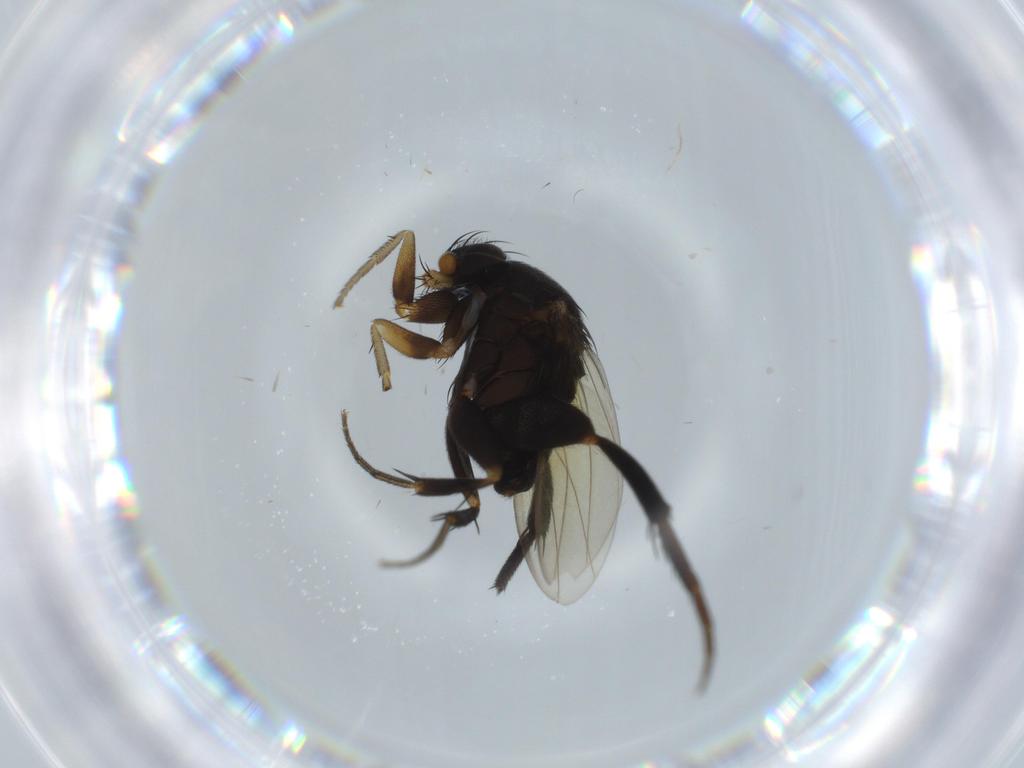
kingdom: Animalia
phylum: Arthropoda
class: Insecta
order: Diptera
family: Phoridae
